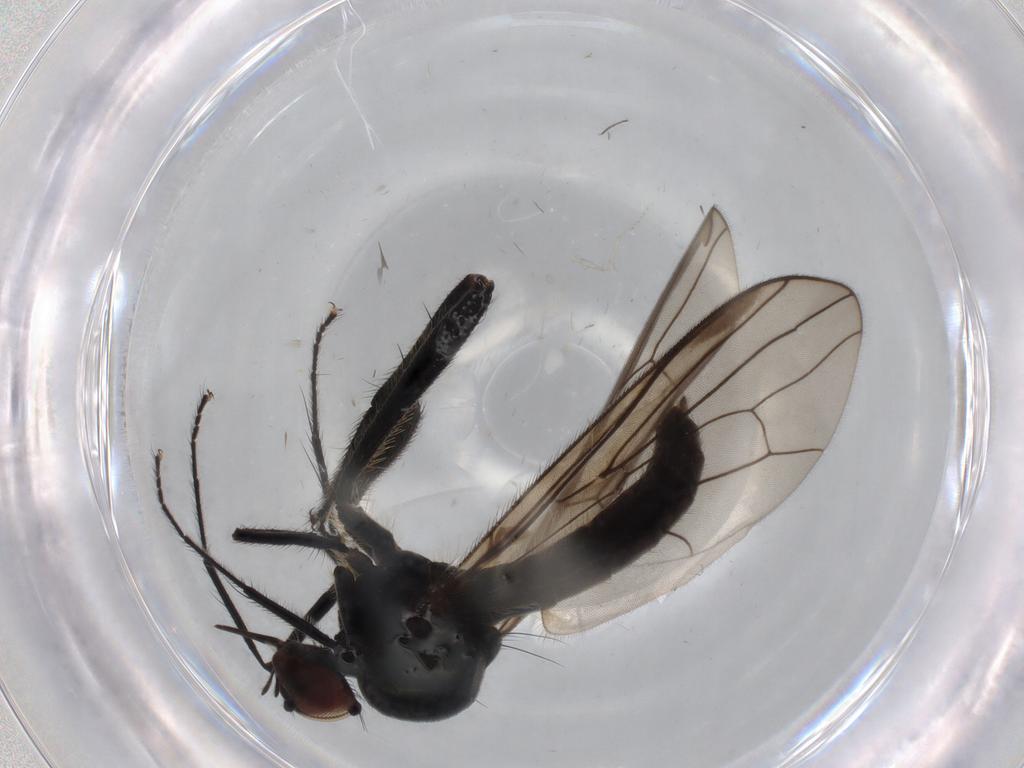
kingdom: Animalia
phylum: Arthropoda
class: Insecta
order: Diptera
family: Hybotidae
